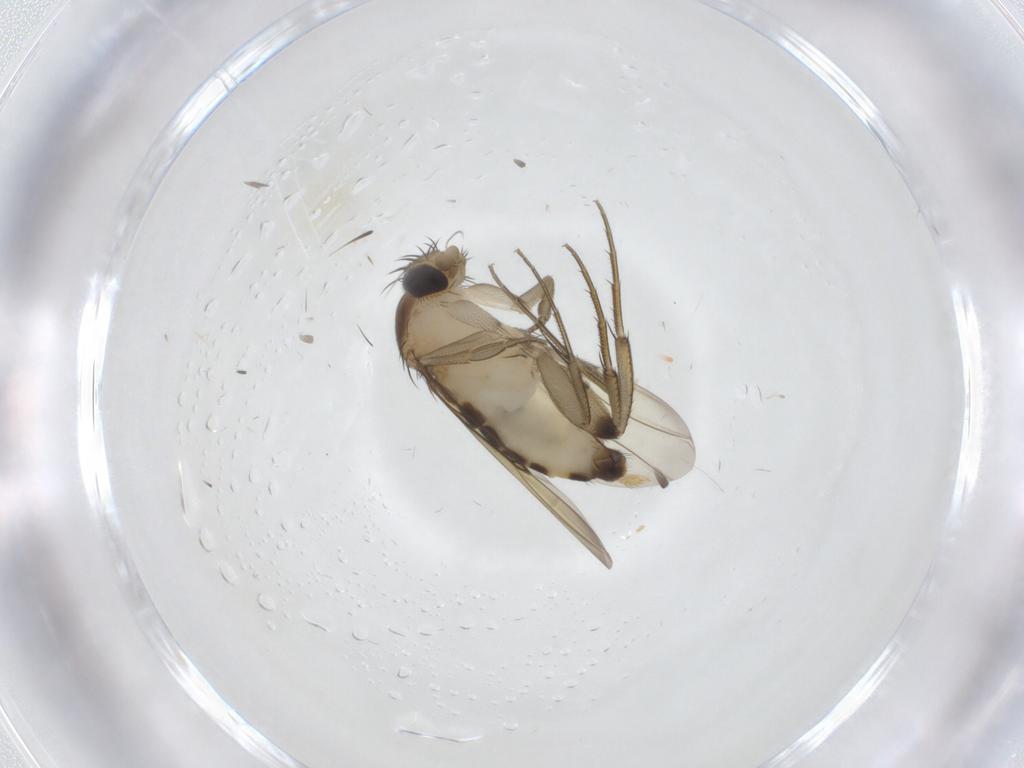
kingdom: Animalia
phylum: Arthropoda
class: Insecta
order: Diptera
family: Phoridae
